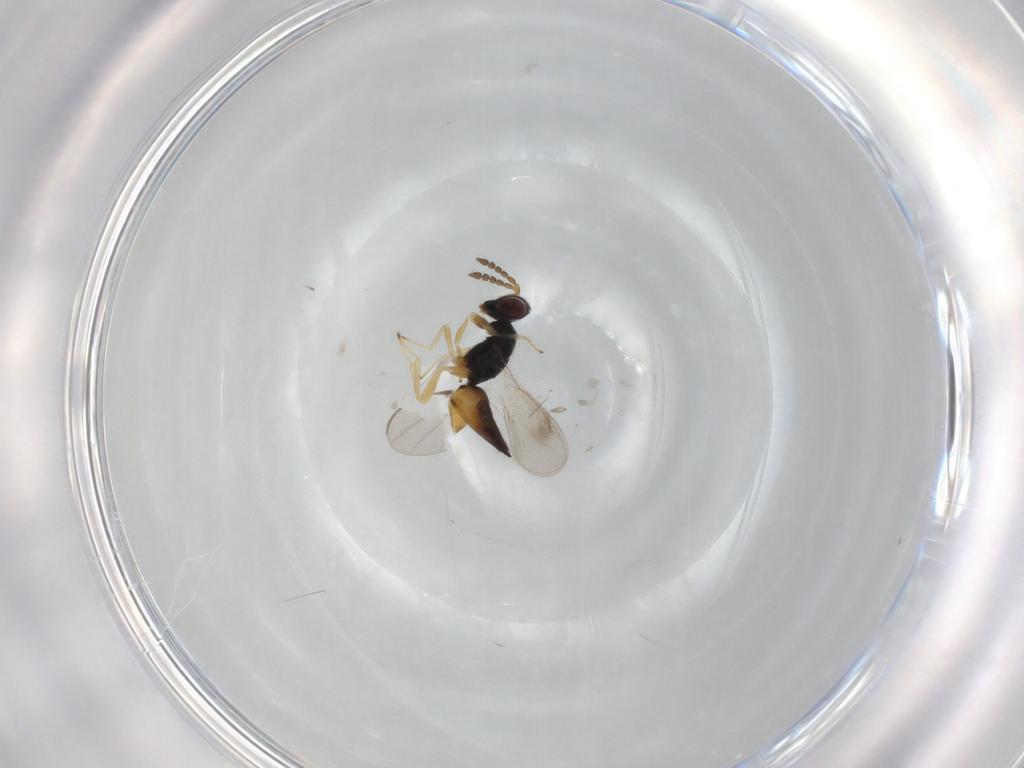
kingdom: Animalia
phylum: Arthropoda
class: Insecta
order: Hymenoptera
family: Eulophidae
